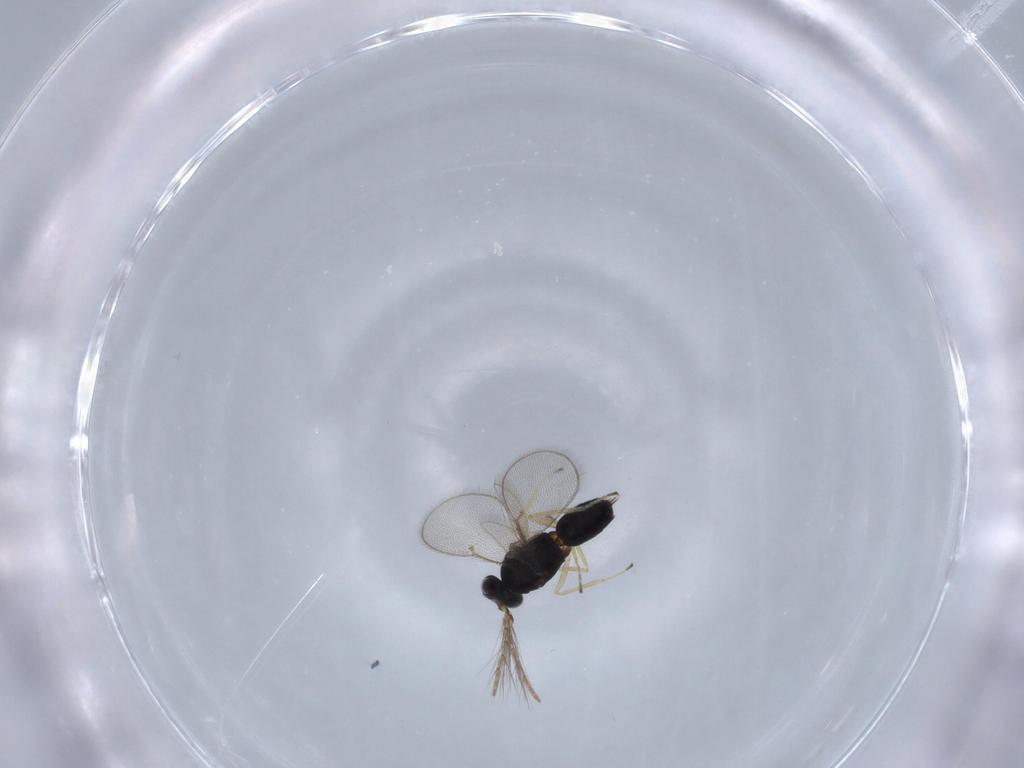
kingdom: Animalia
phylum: Arthropoda
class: Insecta
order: Hymenoptera
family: Eulophidae
